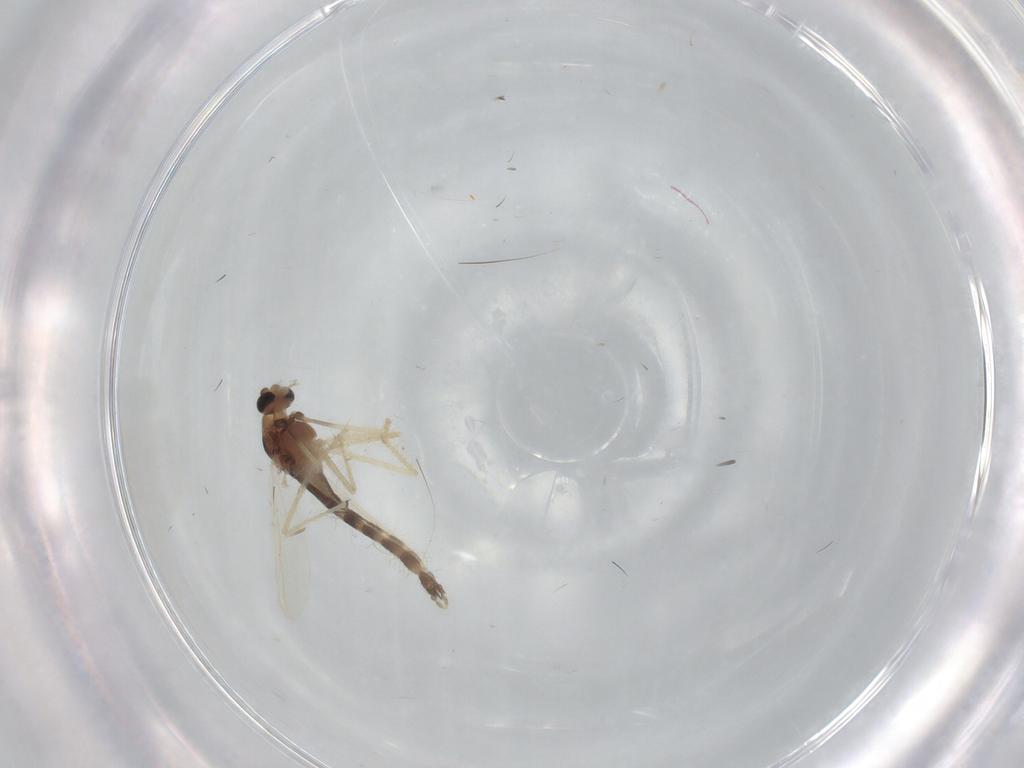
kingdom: Animalia
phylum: Arthropoda
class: Insecta
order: Diptera
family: Chironomidae
